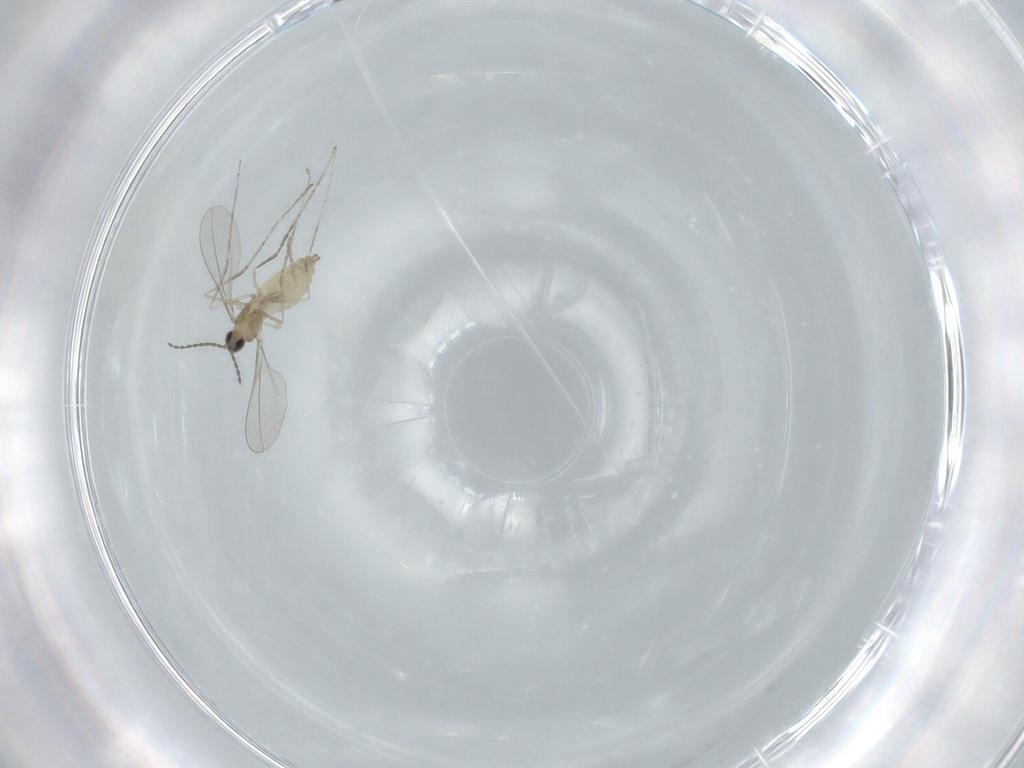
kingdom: Animalia
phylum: Arthropoda
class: Insecta
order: Diptera
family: Cecidomyiidae
